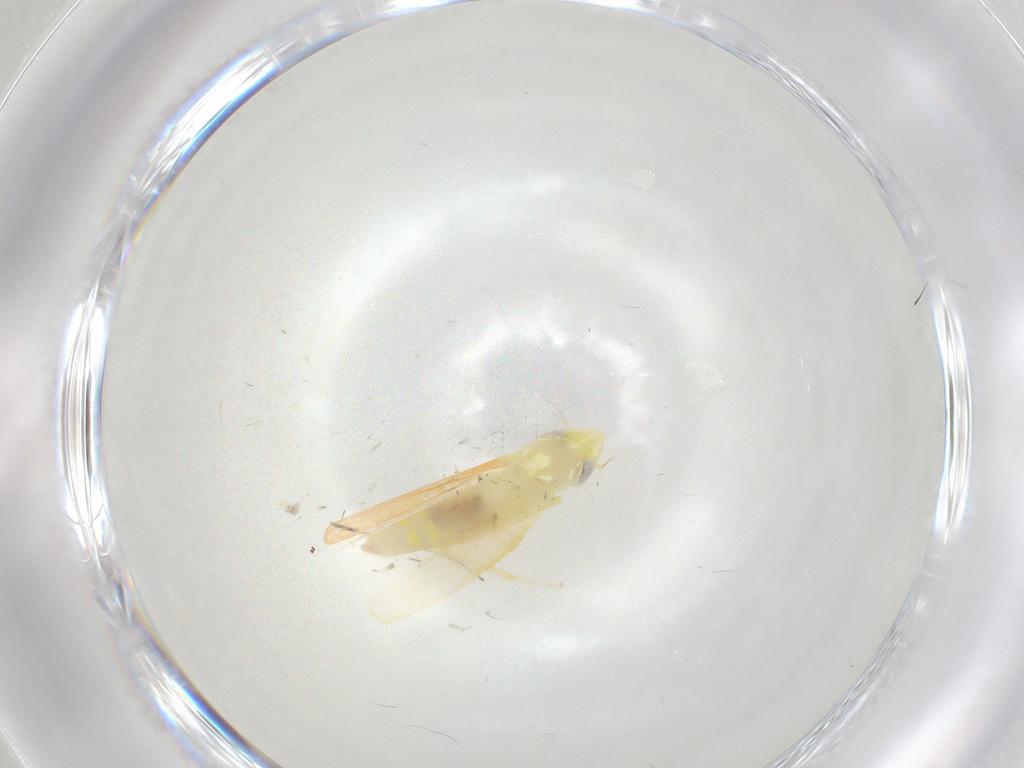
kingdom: Animalia
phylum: Arthropoda
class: Insecta
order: Hemiptera
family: Cicadellidae
